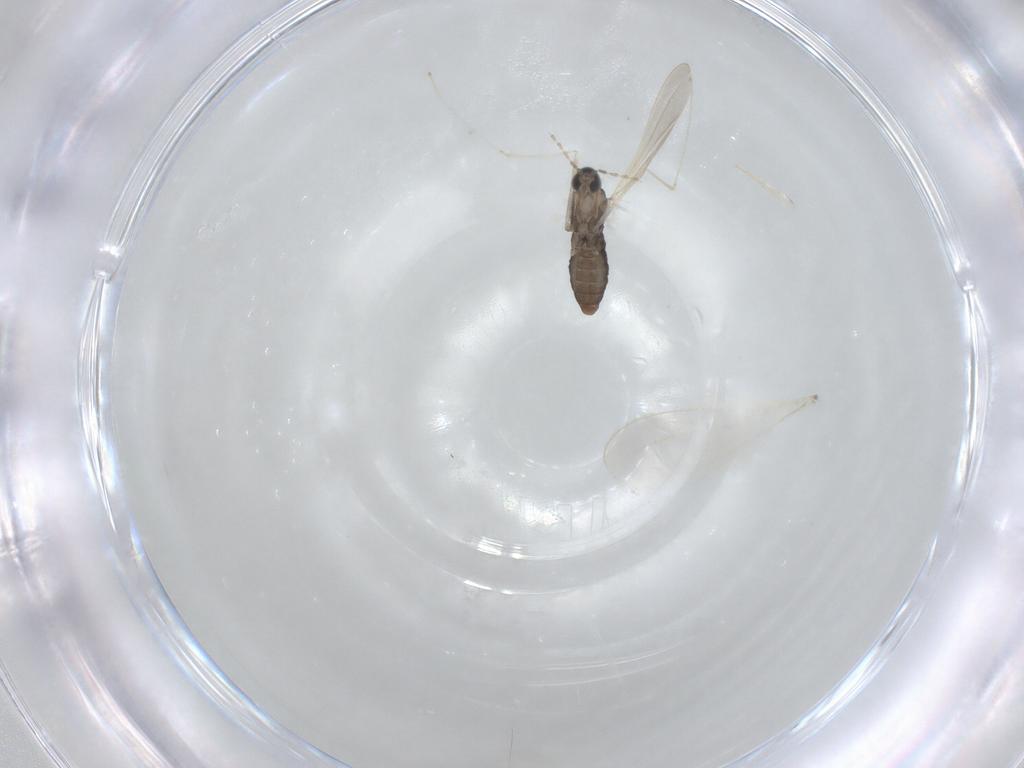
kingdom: Animalia
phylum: Arthropoda
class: Insecta
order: Diptera
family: Cecidomyiidae
